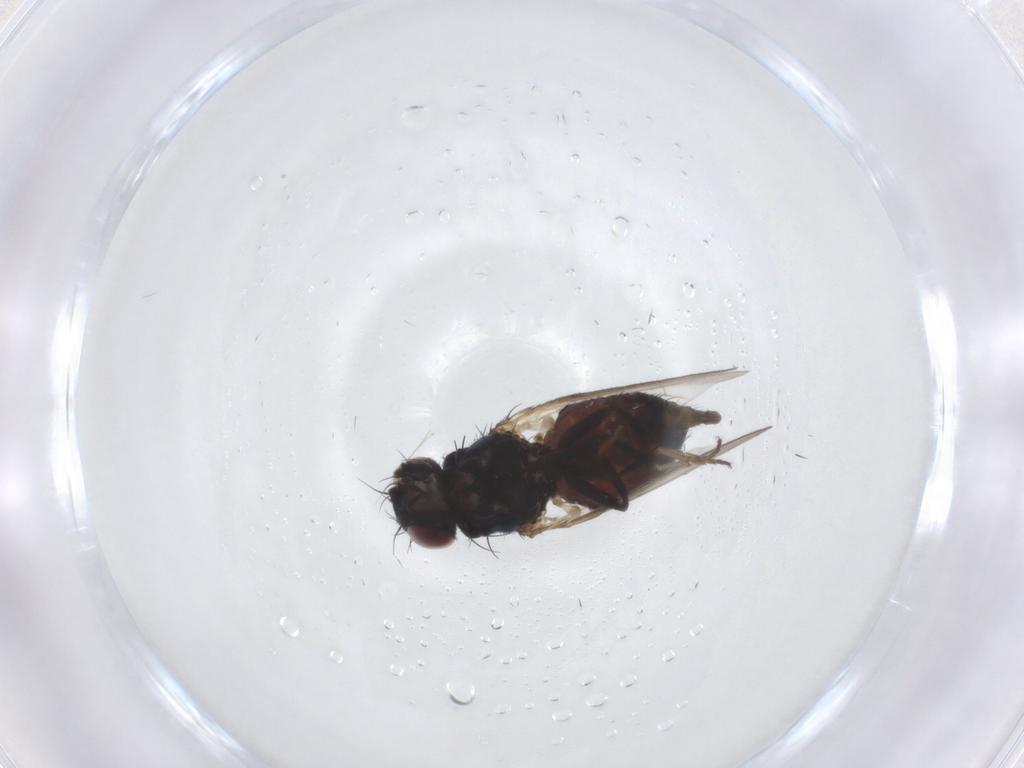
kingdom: Animalia
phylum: Arthropoda
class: Insecta
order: Diptera
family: Carnidae
